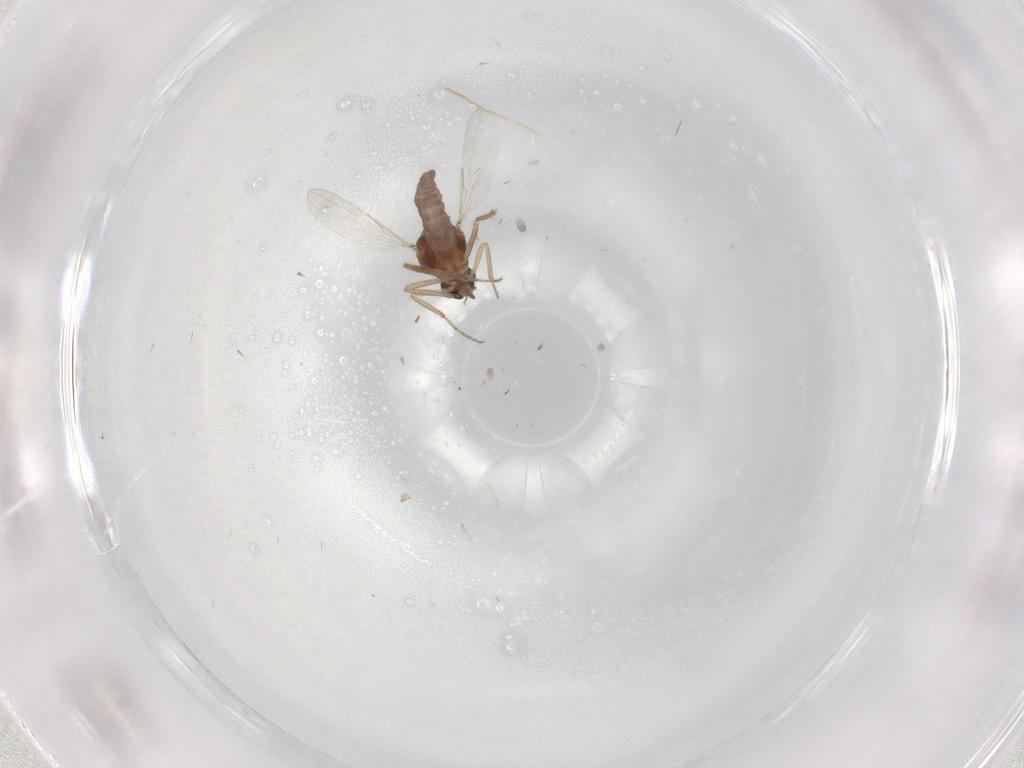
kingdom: Animalia
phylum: Arthropoda
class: Insecta
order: Diptera
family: Ceratopogonidae
